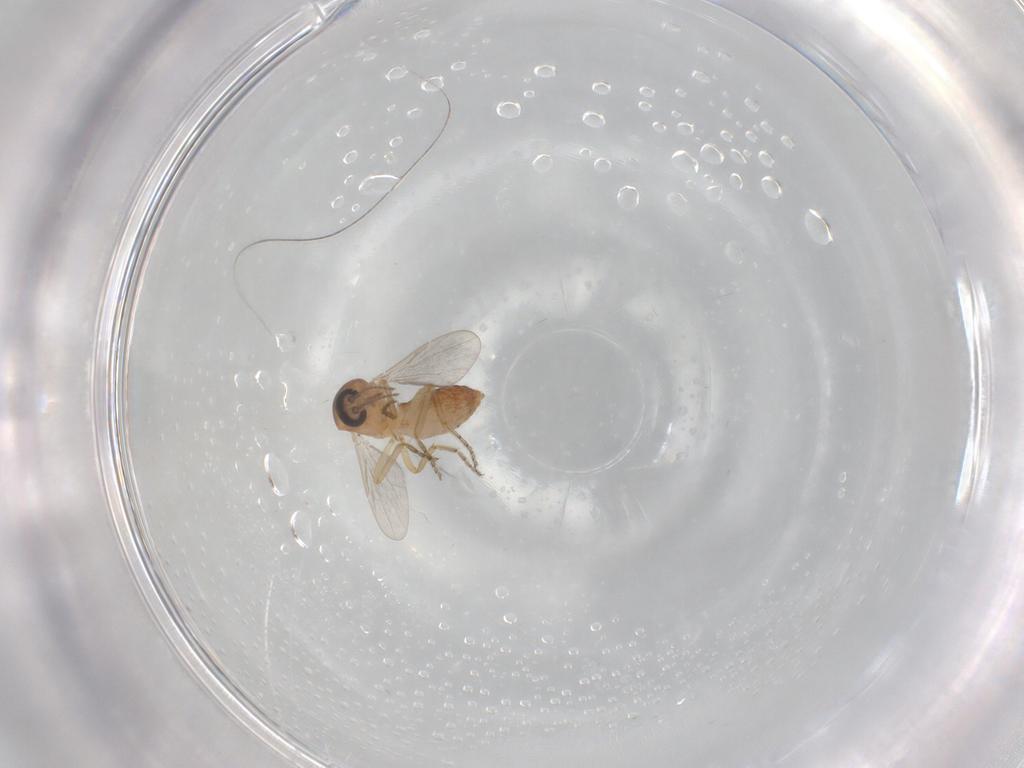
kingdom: Animalia
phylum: Arthropoda
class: Insecta
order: Diptera
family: Ceratopogonidae
